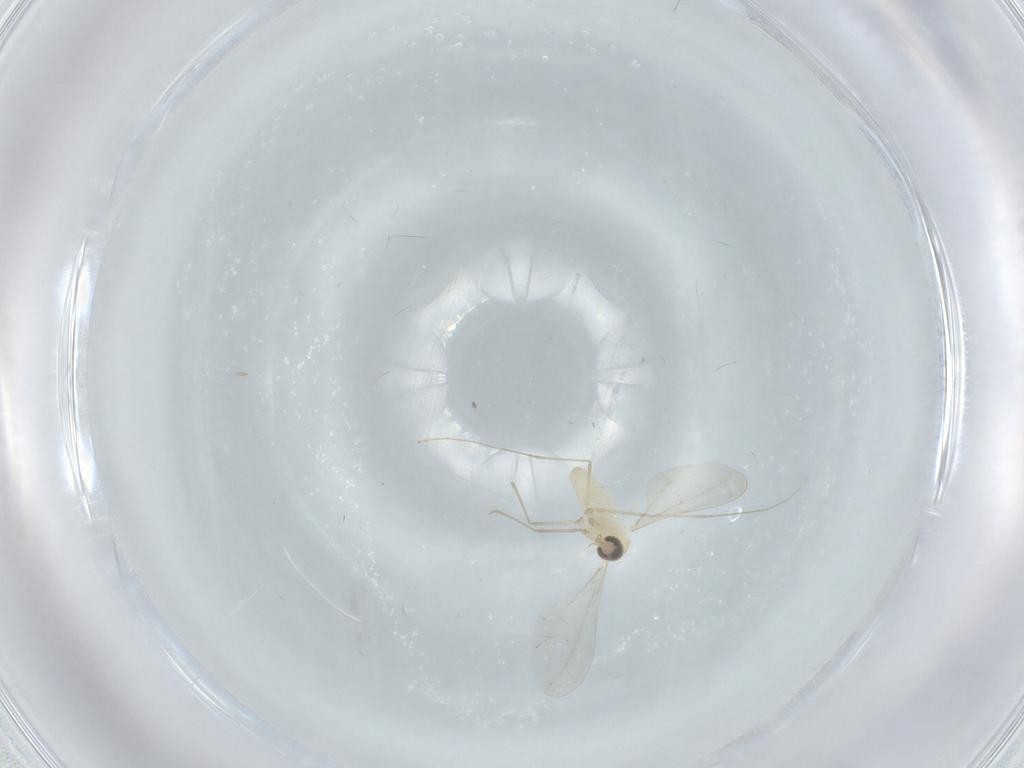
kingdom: Animalia
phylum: Arthropoda
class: Insecta
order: Diptera
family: Cecidomyiidae
